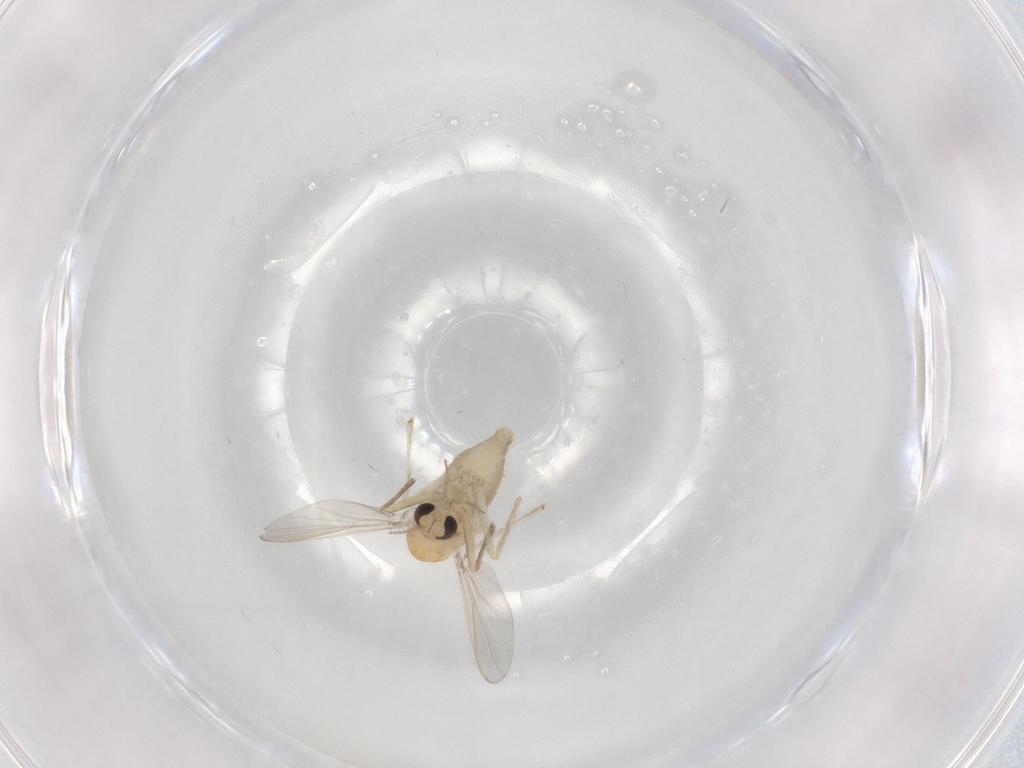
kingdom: Animalia
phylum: Arthropoda
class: Insecta
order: Diptera
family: Chironomidae
